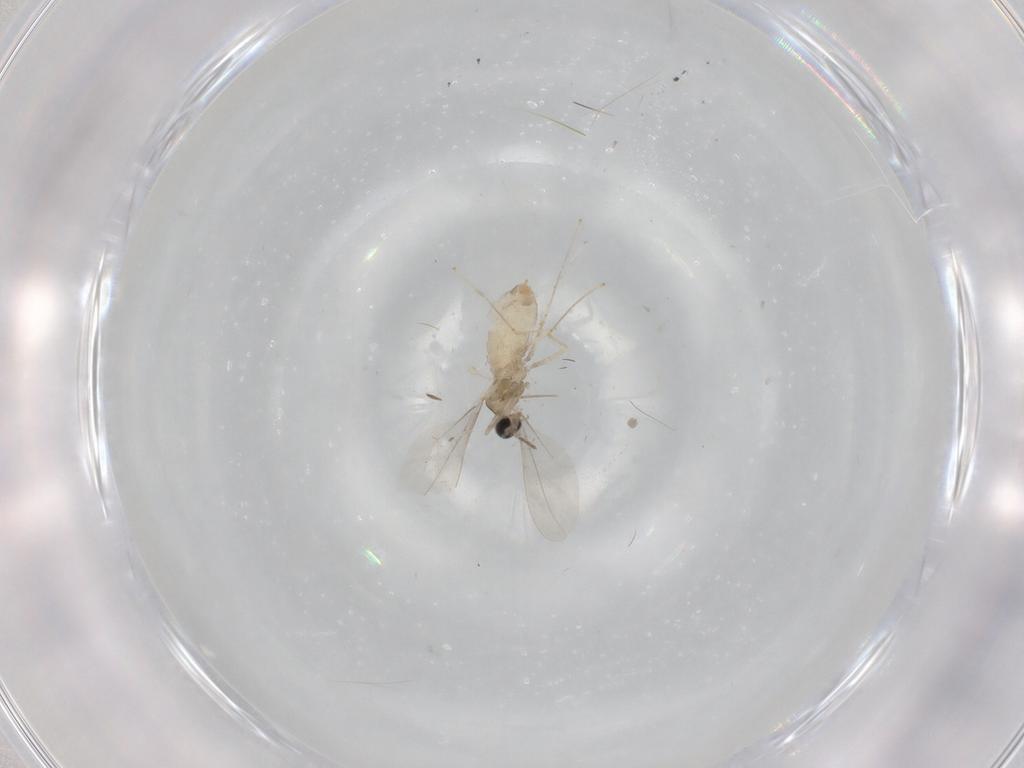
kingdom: Animalia
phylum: Arthropoda
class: Insecta
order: Diptera
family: Cecidomyiidae
